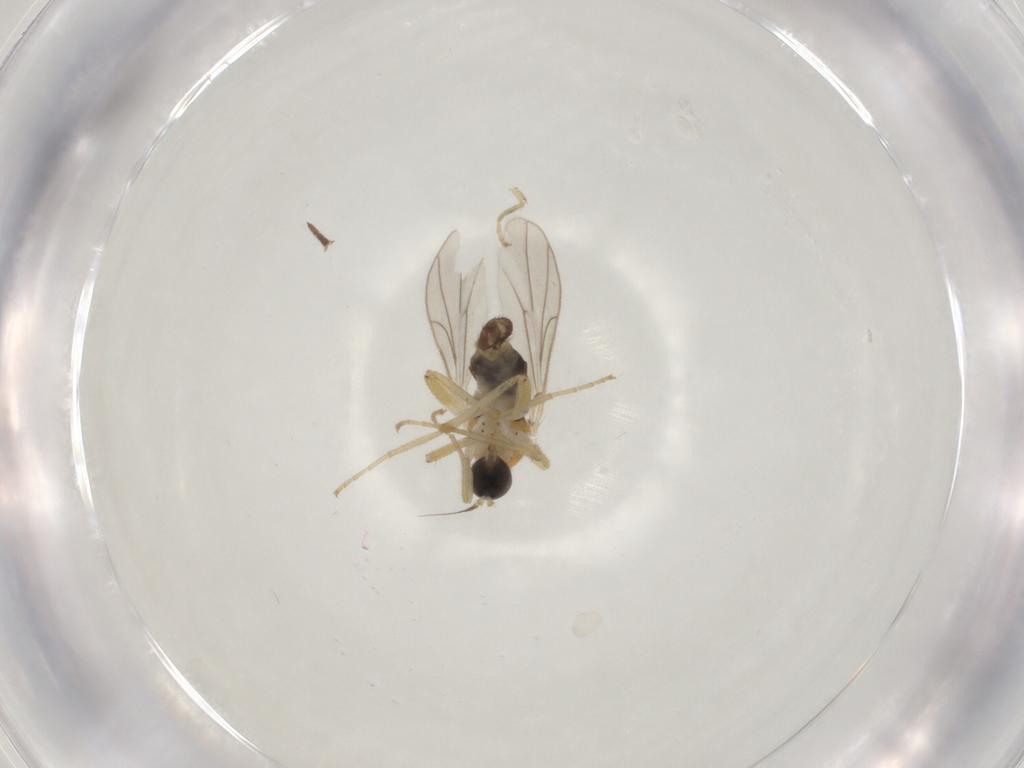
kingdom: Animalia
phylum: Arthropoda
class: Insecta
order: Diptera
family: Hybotidae
